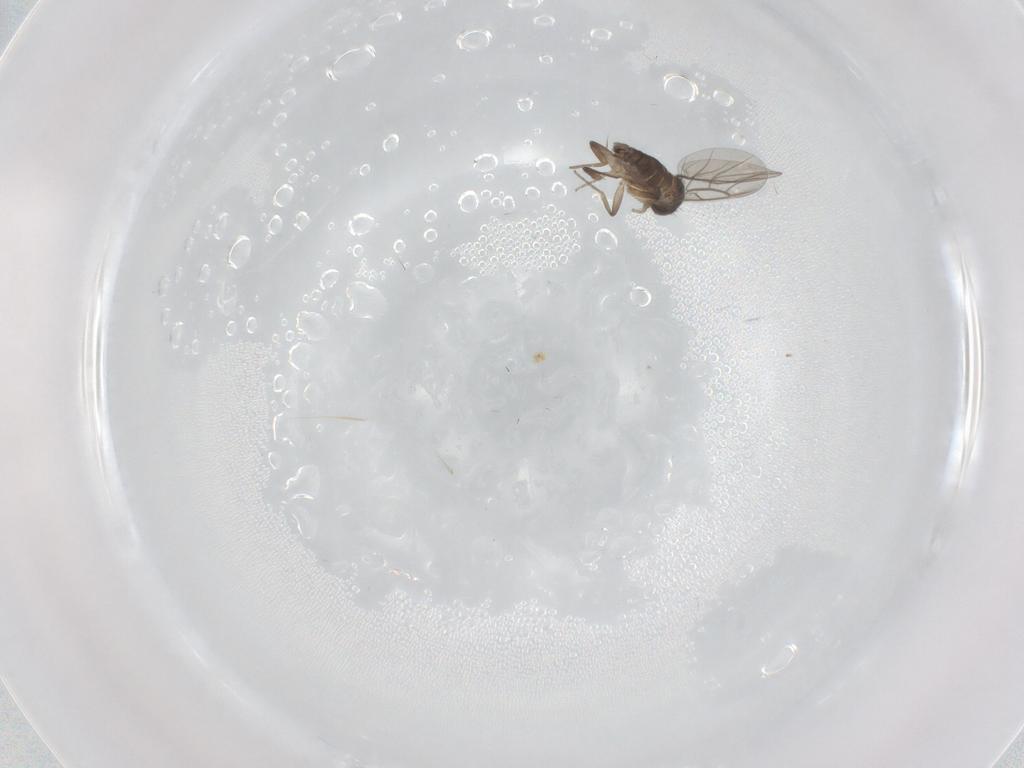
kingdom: Animalia
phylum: Arthropoda
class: Insecta
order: Diptera
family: Phoridae
